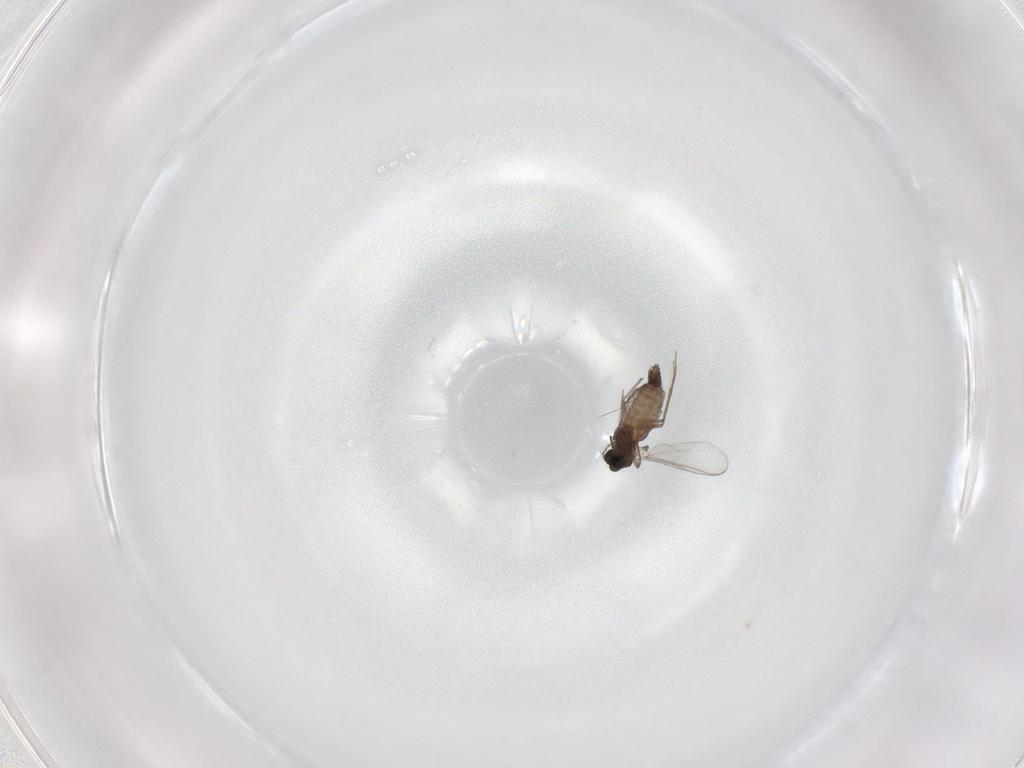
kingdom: Animalia
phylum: Arthropoda
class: Insecta
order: Diptera
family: Chironomidae
